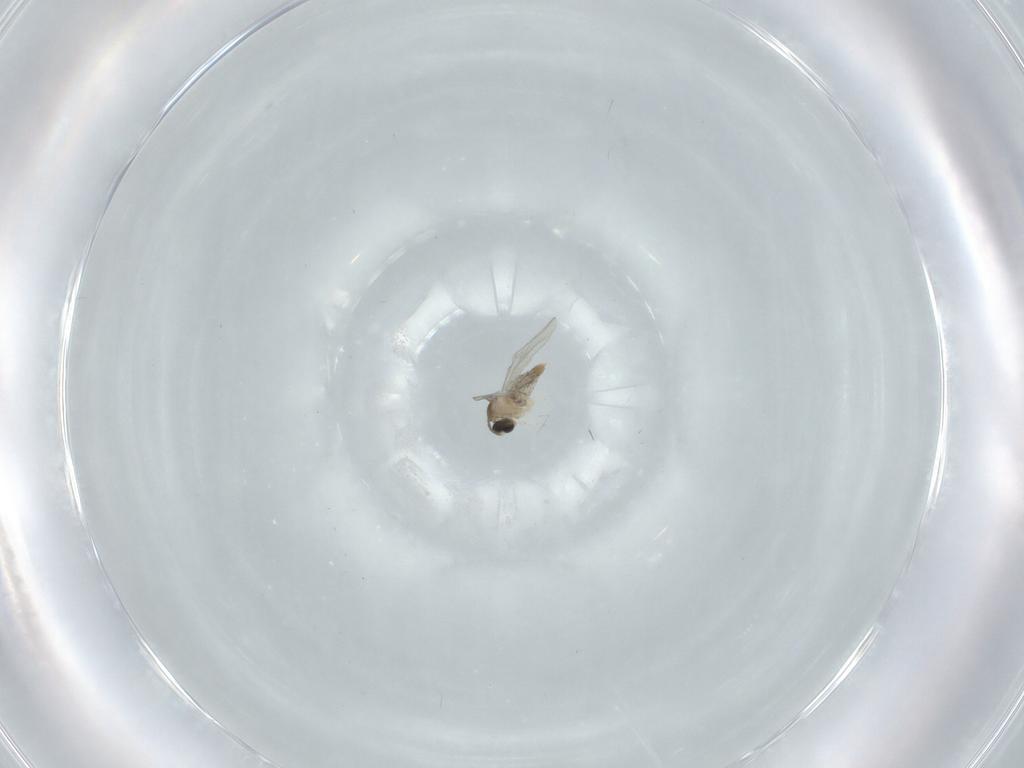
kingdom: Animalia
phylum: Arthropoda
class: Insecta
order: Diptera
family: Cecidomyiidae
